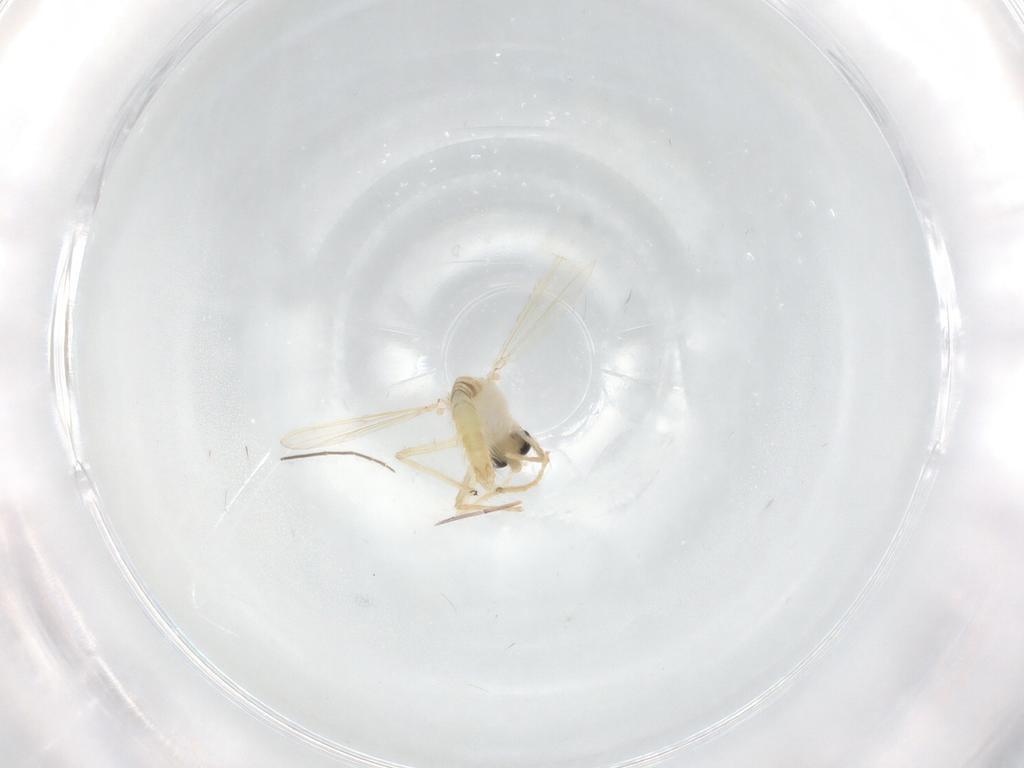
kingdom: Animalia
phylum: Arthropoda
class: Insecta
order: Diptera
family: Chironomidae
